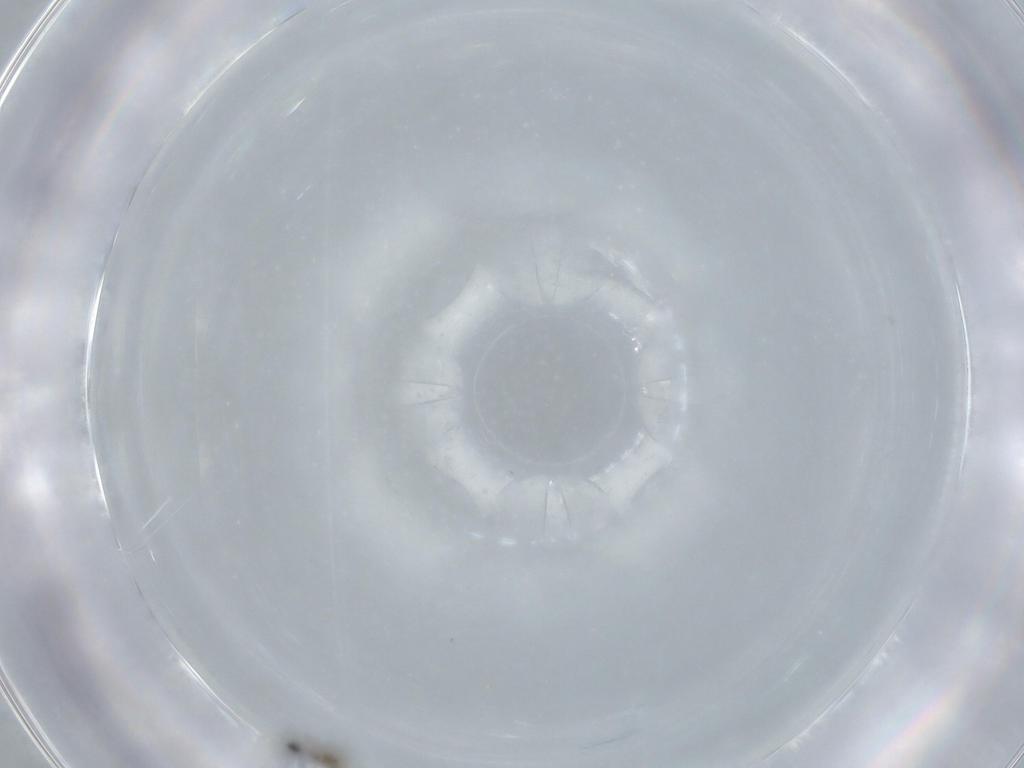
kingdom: Animalia
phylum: Arthropoda
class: Insecta
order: Diptera
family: Cecidomyiidae
